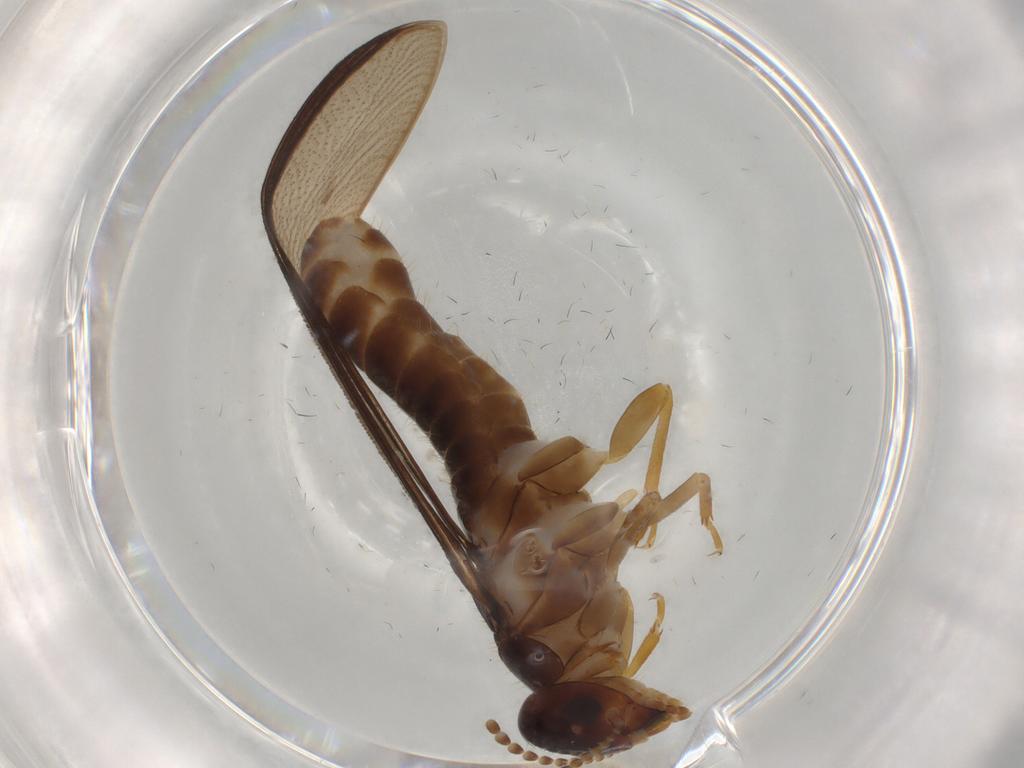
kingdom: Animalia
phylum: Arthropoda
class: Insecta
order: Blattodea
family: Kalotermitidae
